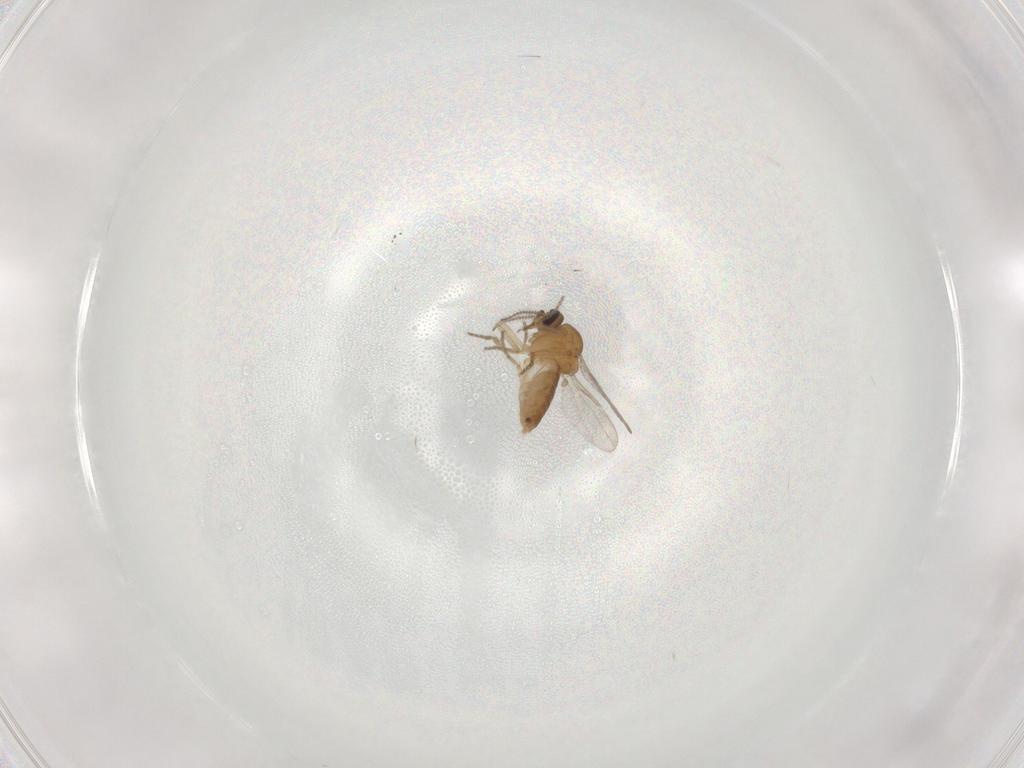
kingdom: Animalia
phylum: Arthropoda
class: Insecta
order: Diptera
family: Ceratopogonidae
